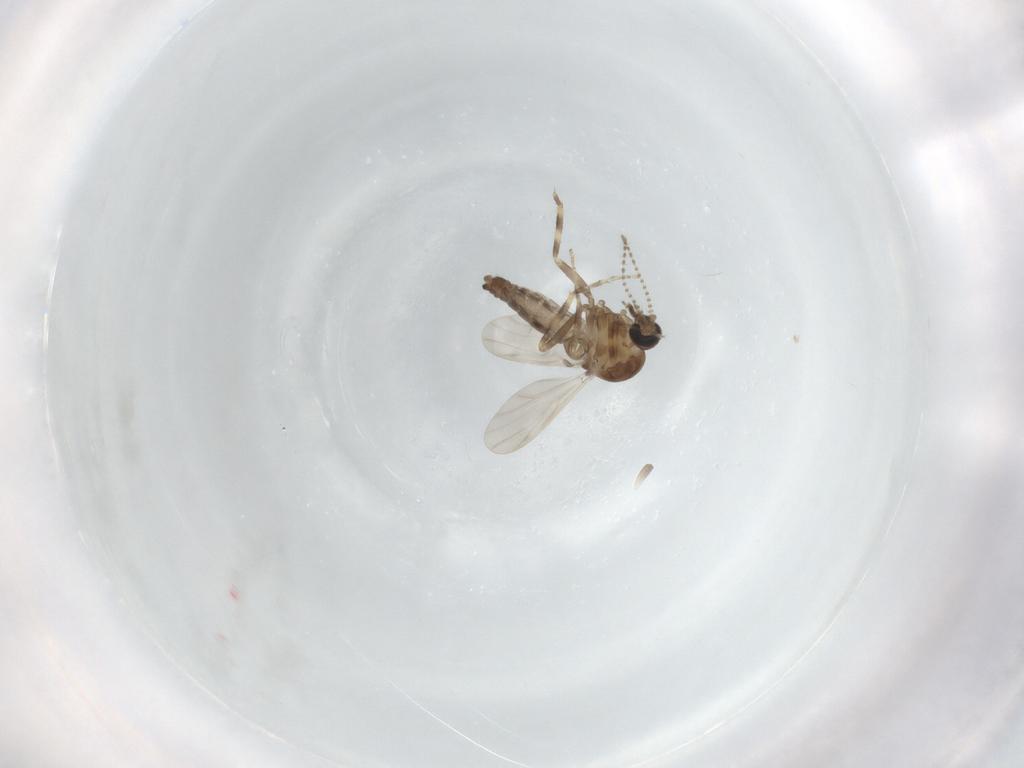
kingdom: Animalia
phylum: Arthropoda
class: Insecta
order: Diptera
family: Ceratopogonidae
